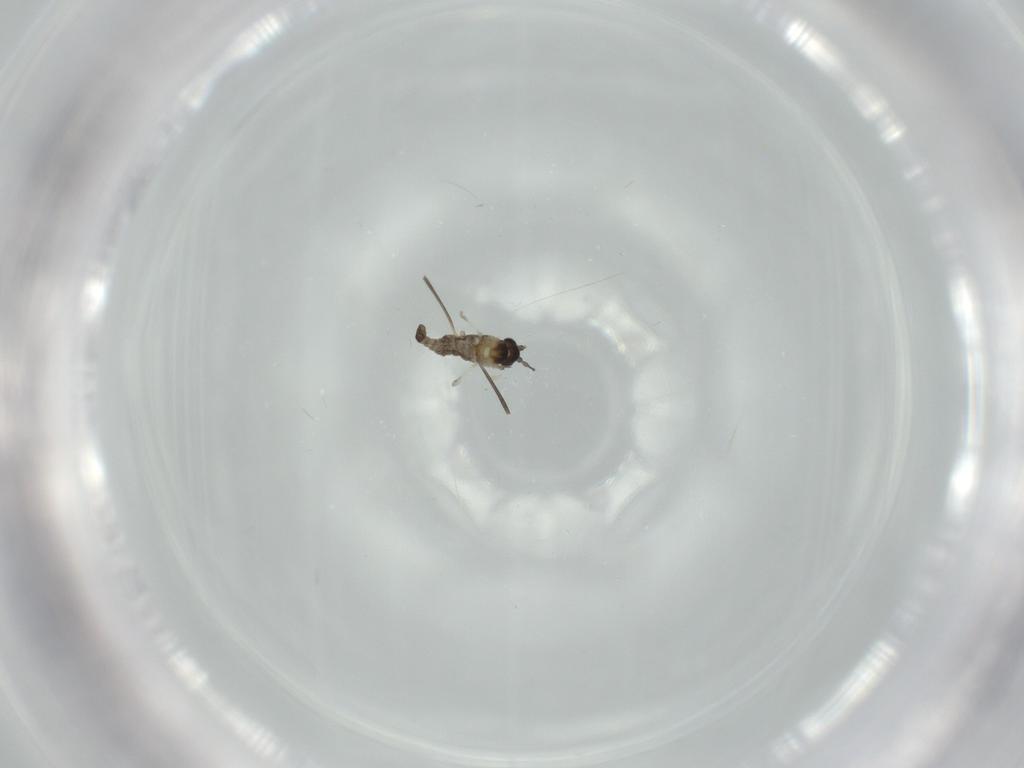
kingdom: Animalia
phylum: Arthropoda
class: Insecta
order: Diptera
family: Cecidomyiidae
